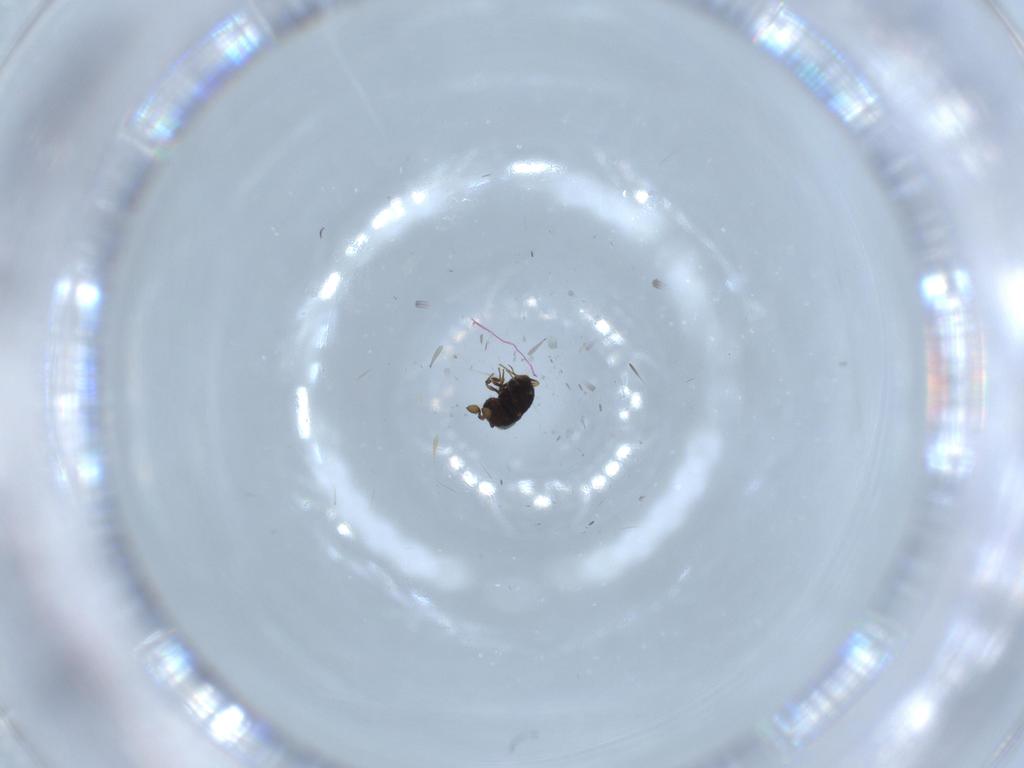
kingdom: Animalia
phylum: Arthropoda
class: Insecta
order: Hymenoptera
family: Scelionidae
